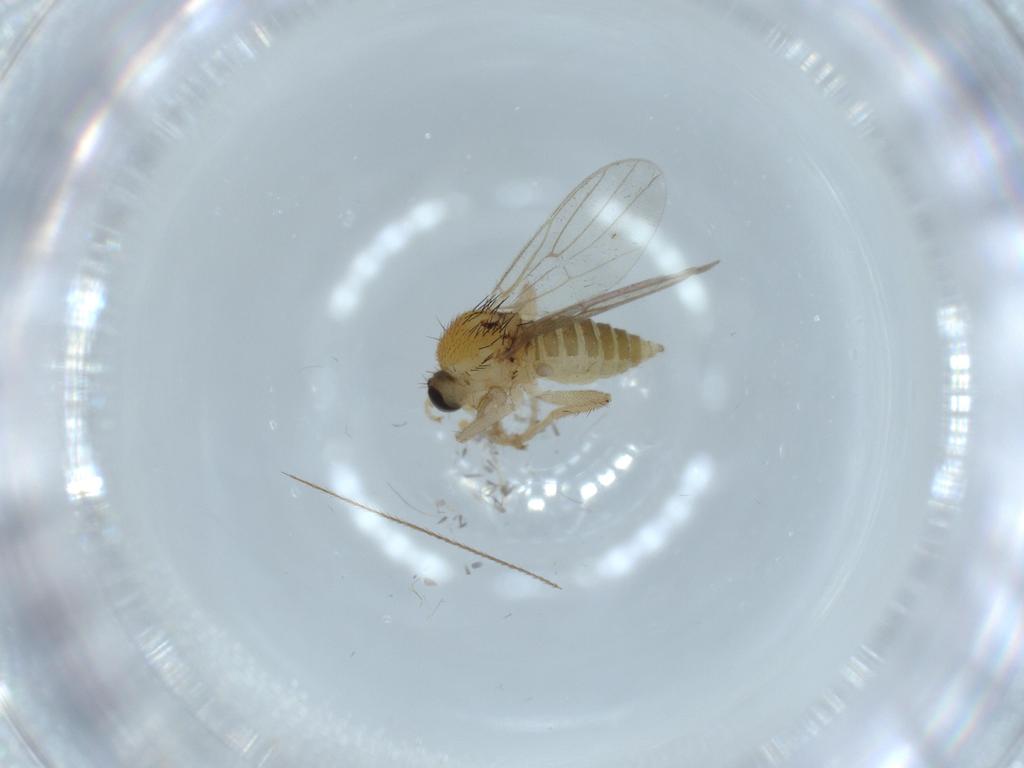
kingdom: Animalia
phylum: Arthropoda
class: Insecta
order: Diptera
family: Hybotidae
